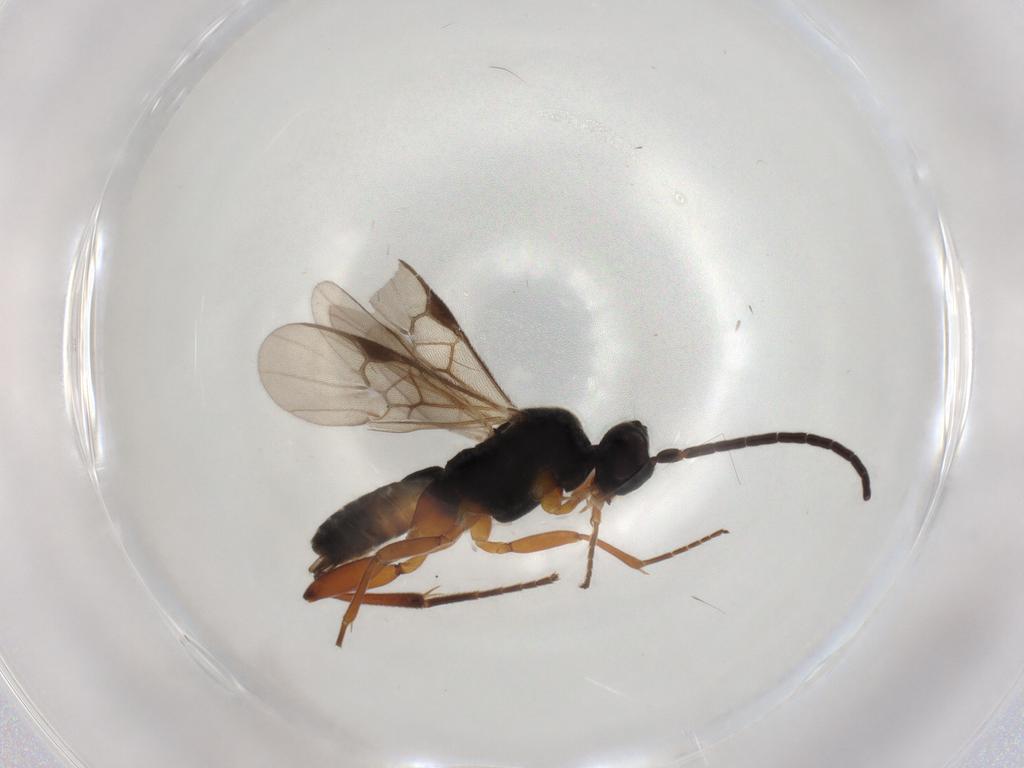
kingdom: Animalia
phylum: Arthropoda
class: Insecta
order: Hymenoptera
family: Braconidae
